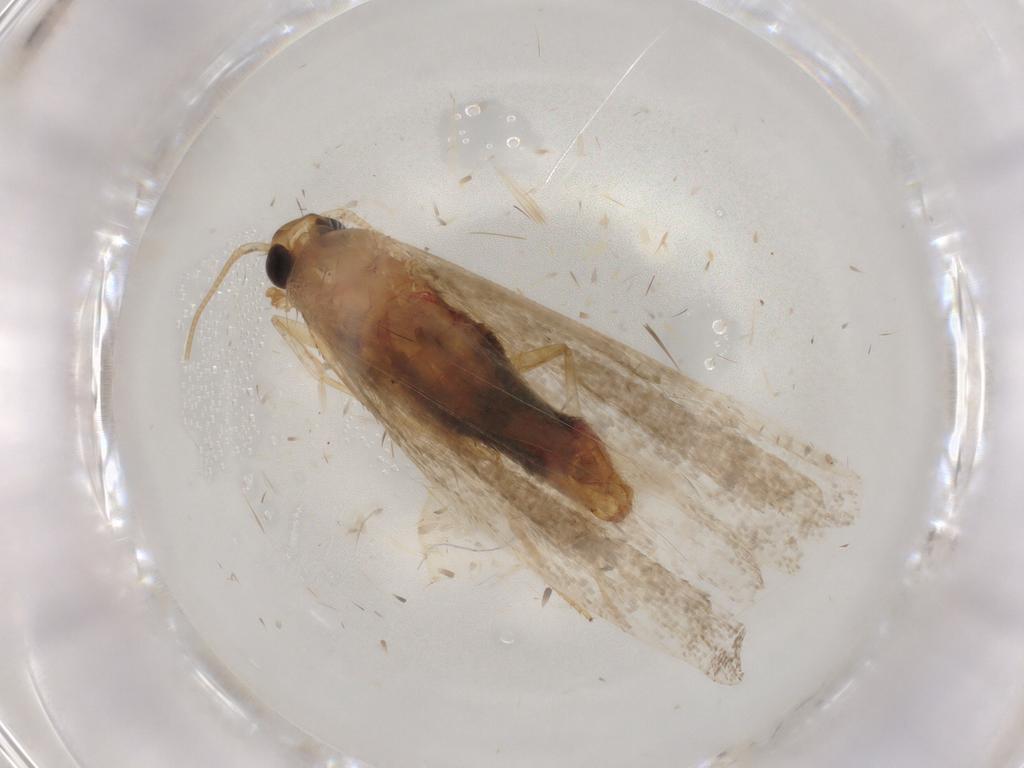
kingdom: Animalia
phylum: Arthropoda
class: Insecta
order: Lepidoptera
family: Erebidae
